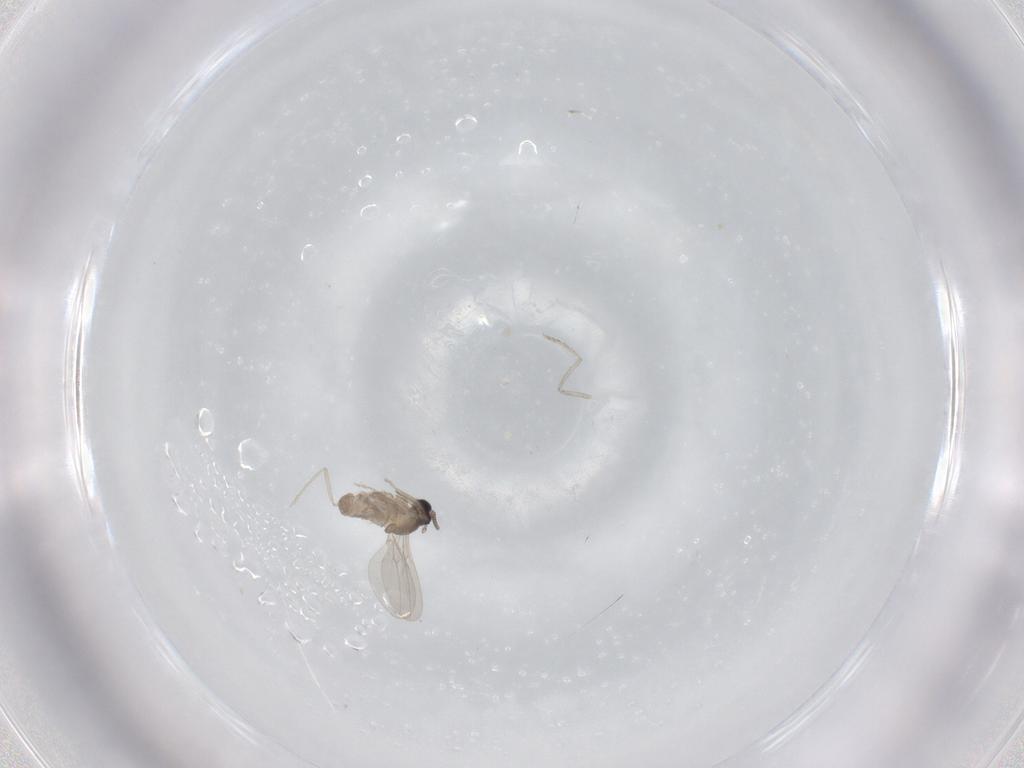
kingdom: Animalia
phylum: Arthropoda
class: Insecta
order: Diptera
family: Cecidomyiidae
